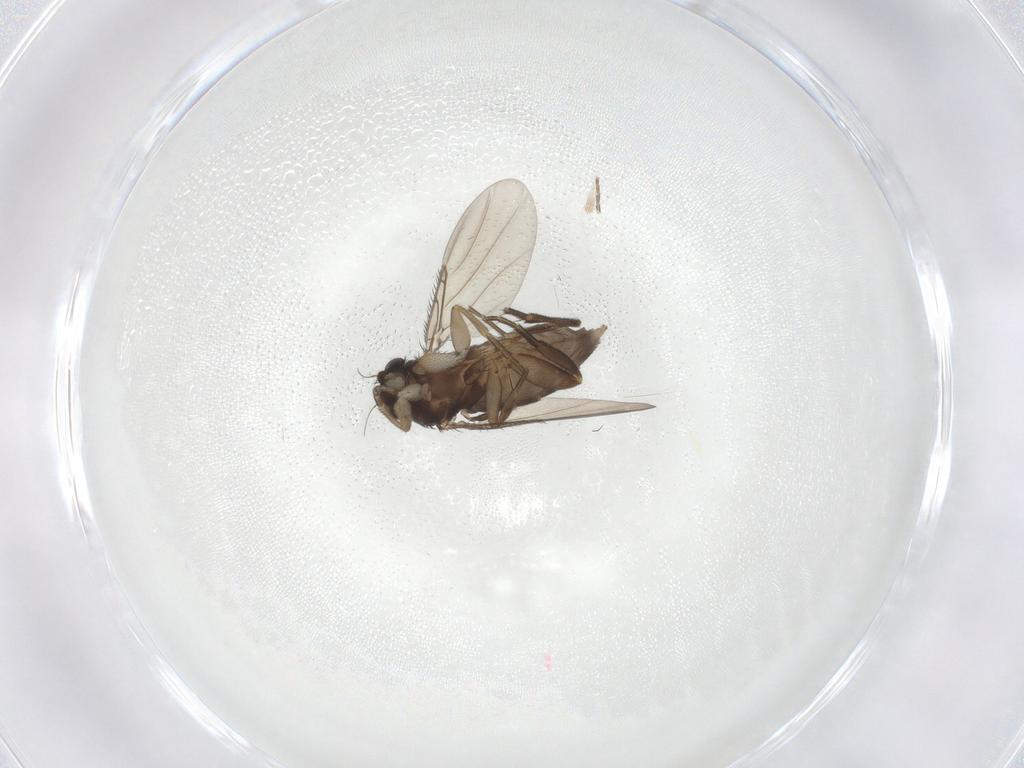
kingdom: Animalia
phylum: Arthropoda
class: Insecta
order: Diptera
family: Phoridae
